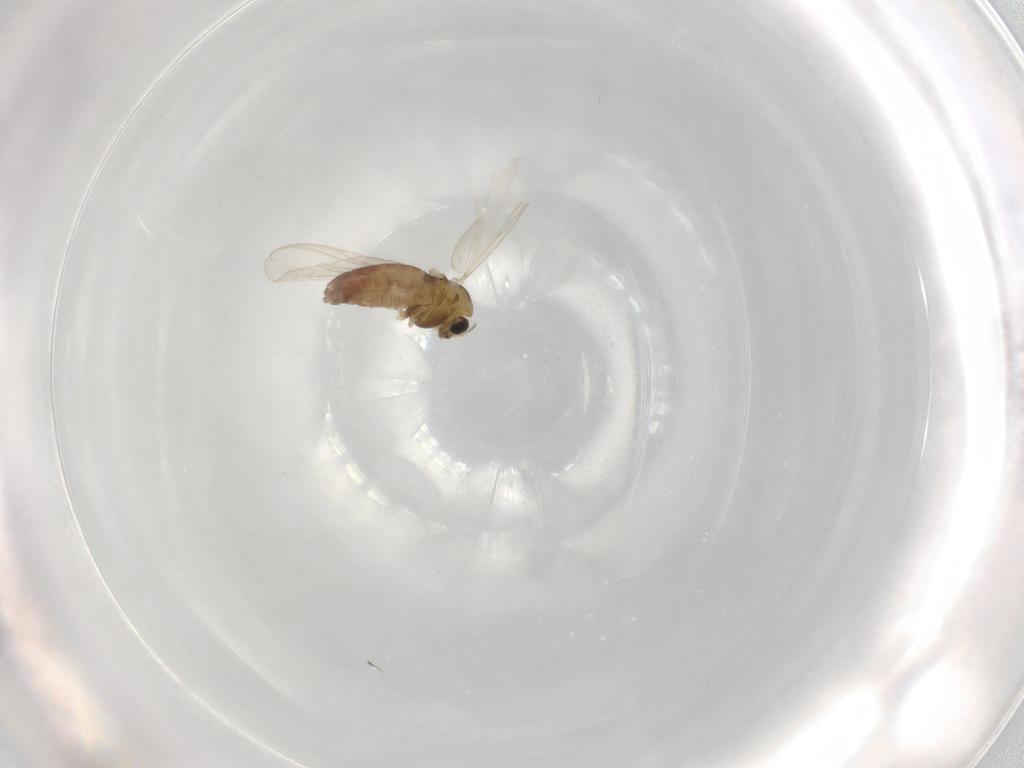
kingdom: Animalia
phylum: Arthropoda
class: Insecta
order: Diptera
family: Chironomidae
